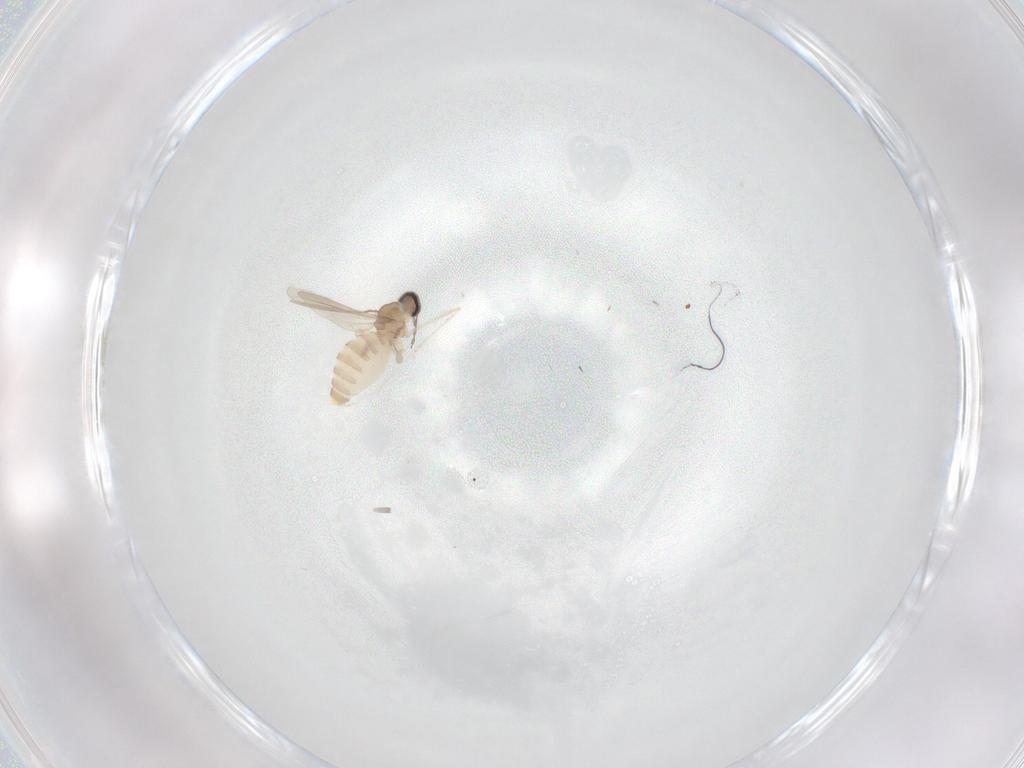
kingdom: Animalia
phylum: Arthropoda
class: Insecta
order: Diptera
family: Cecidomyiidae
